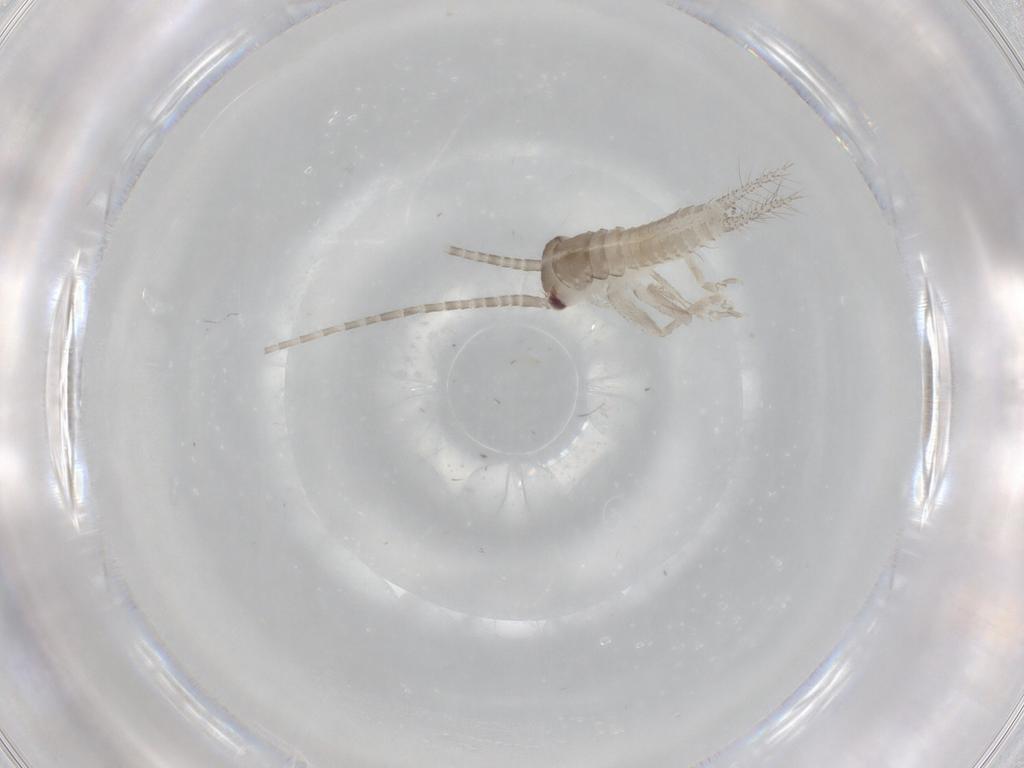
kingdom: Animalia
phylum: Arthropoda
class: Insecta
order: Orthoptera
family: Gryllidae
